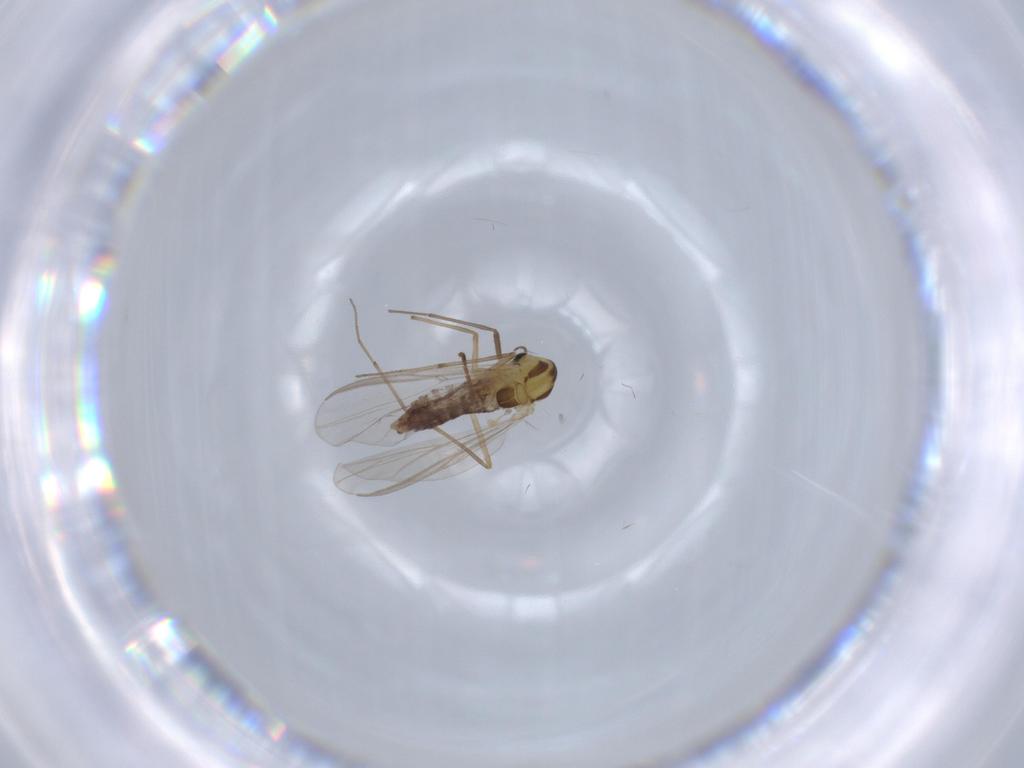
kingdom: Animalia
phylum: Arthropoda
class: Insecta
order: Diptera
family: Chironomidae
